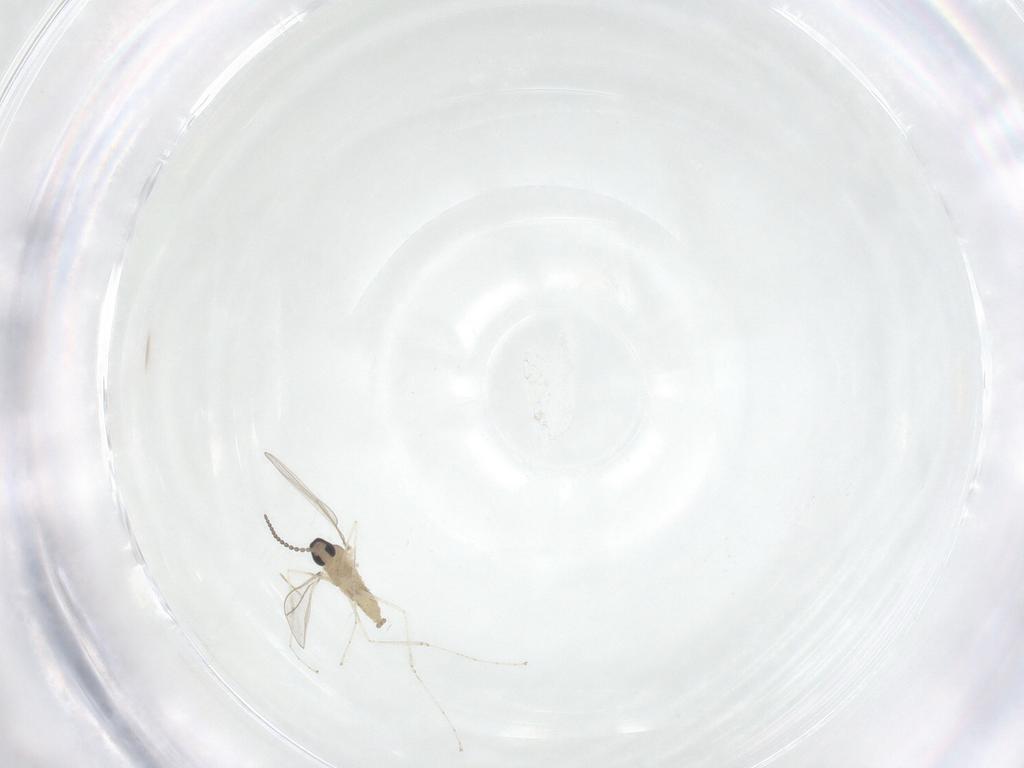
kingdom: Animalia
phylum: Arthropoda
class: Insecta
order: Diptera
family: Cecidomyiidae
